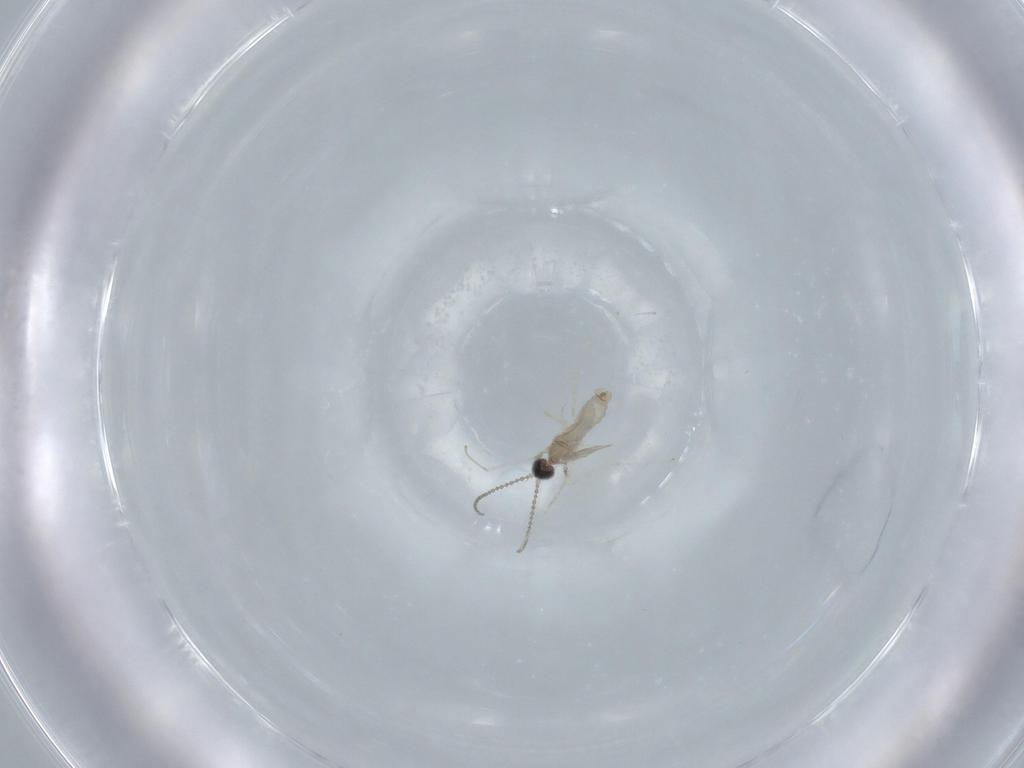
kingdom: Animalia
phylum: Arthropoda
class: Insecta
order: Diptera
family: Cecidomyiidae
